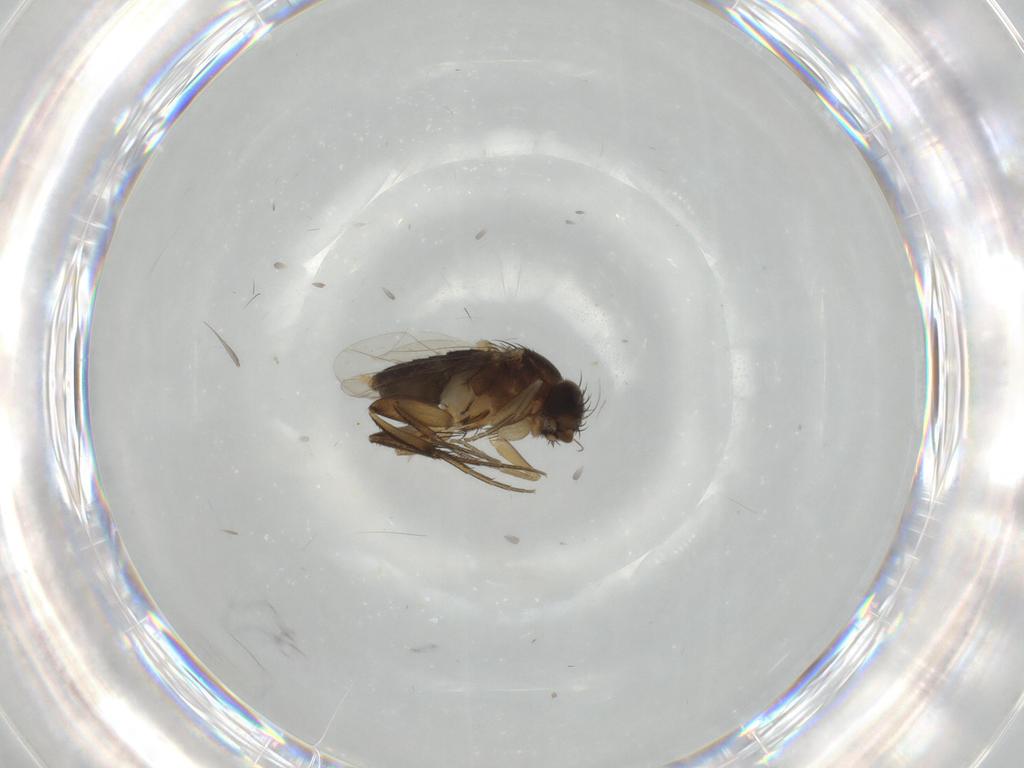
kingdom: Animalia
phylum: Arthropoda
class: Insecta
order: Diptera
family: Phoridae
